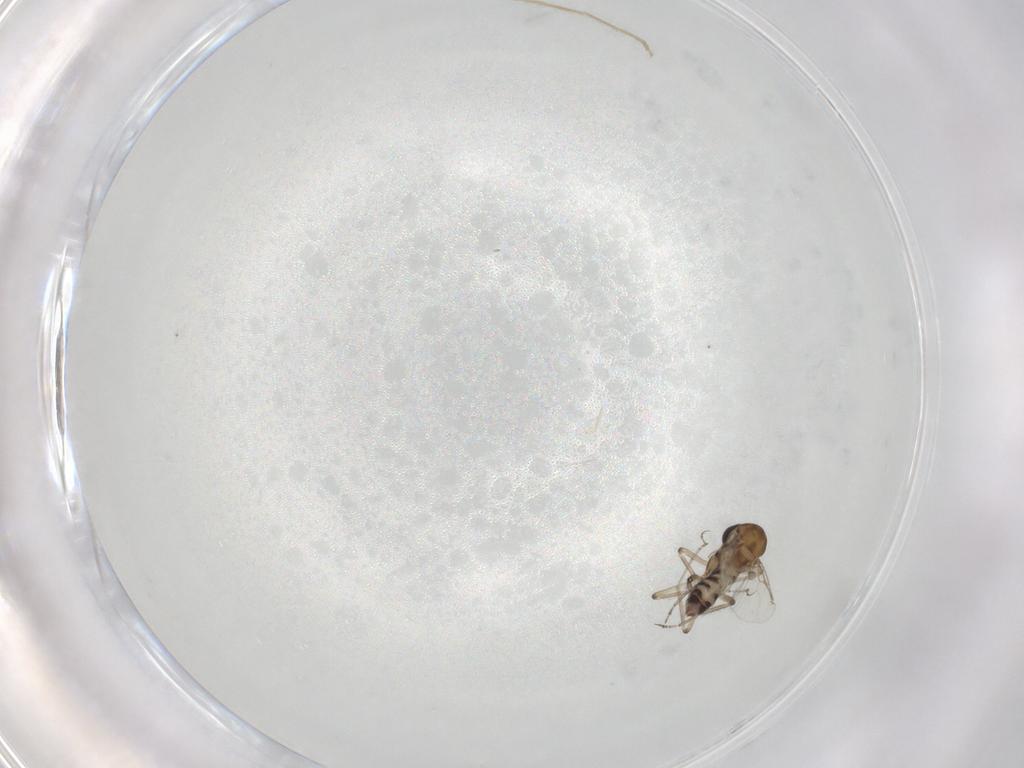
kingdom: Animalia
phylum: Arthropoda
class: Insecta
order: Diptera
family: Ceratopogonidae
